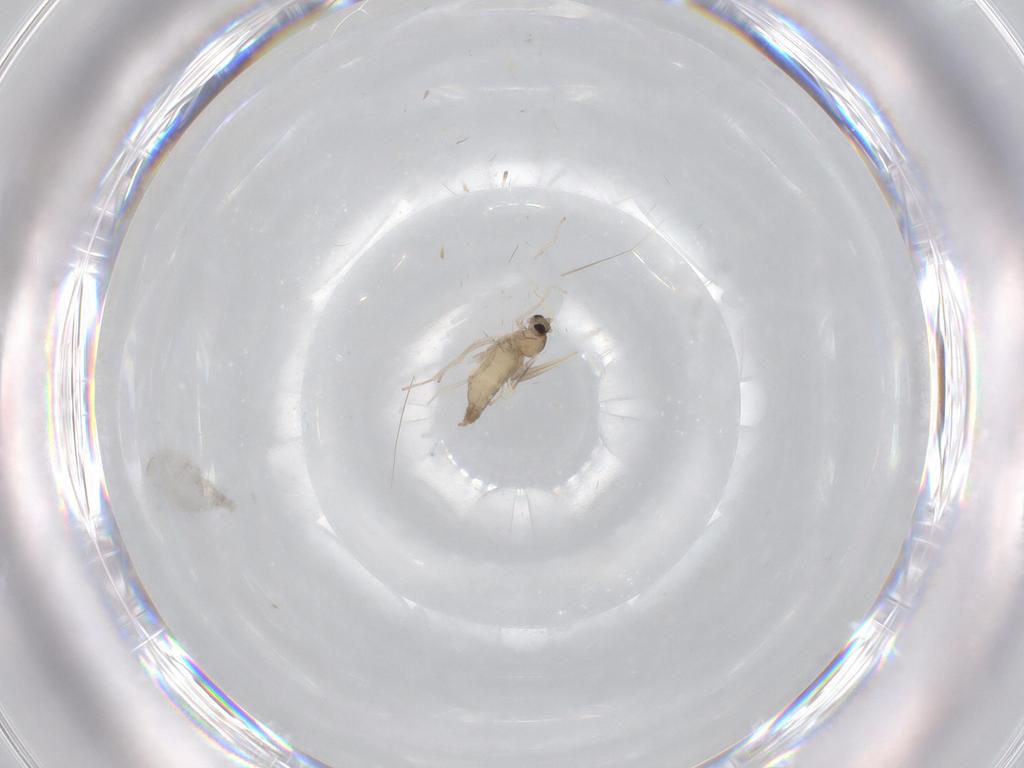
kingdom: Animalia
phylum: Arthropoda
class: Insecta
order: Diptera
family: Cecidomyiidae
